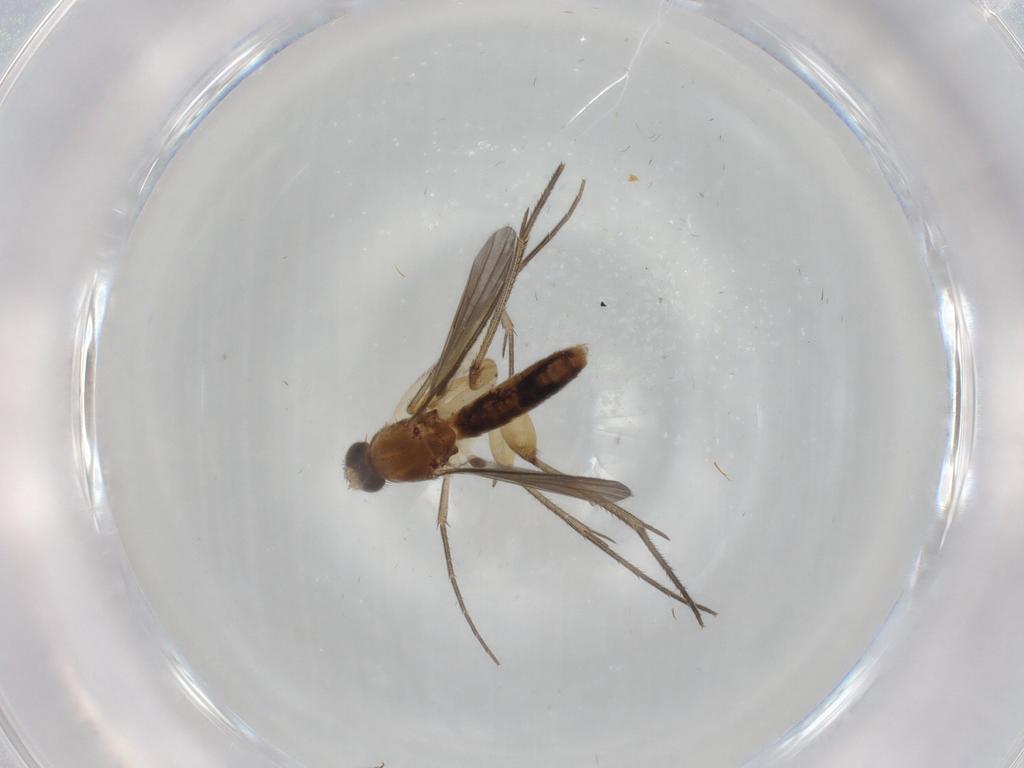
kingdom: Animalia
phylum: Arthropoda
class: Insecta
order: Diptera
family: Mycetophilidae
